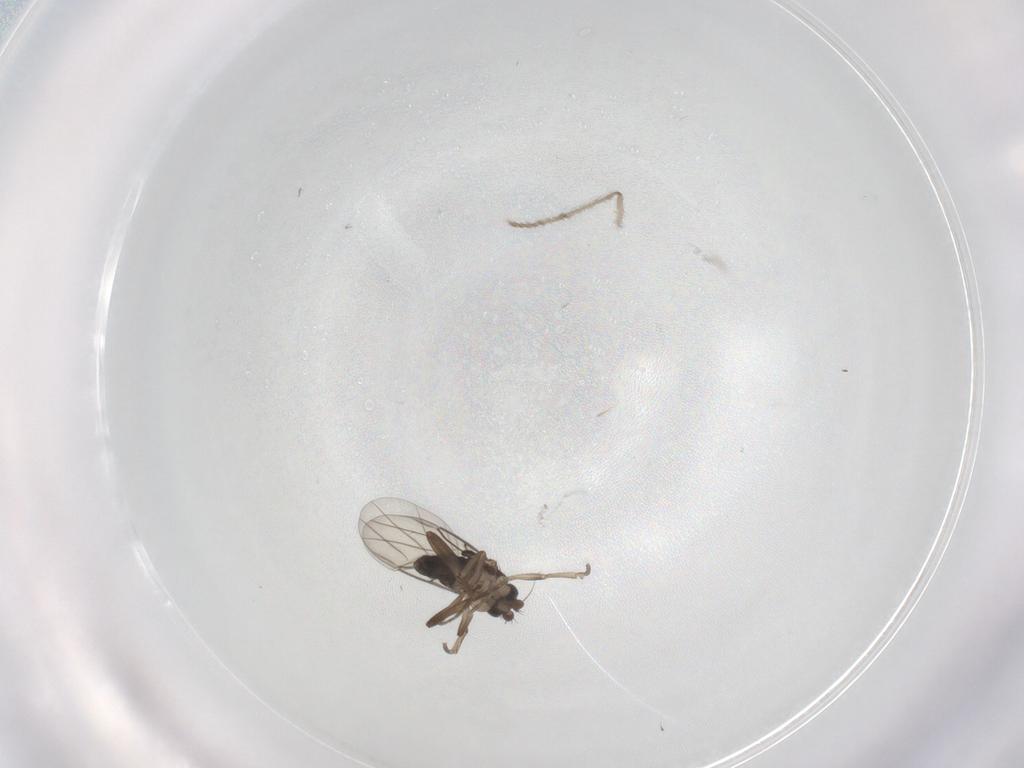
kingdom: Animalia
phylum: Arthropoda
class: Insecta
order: Diptera
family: Psychodidae
